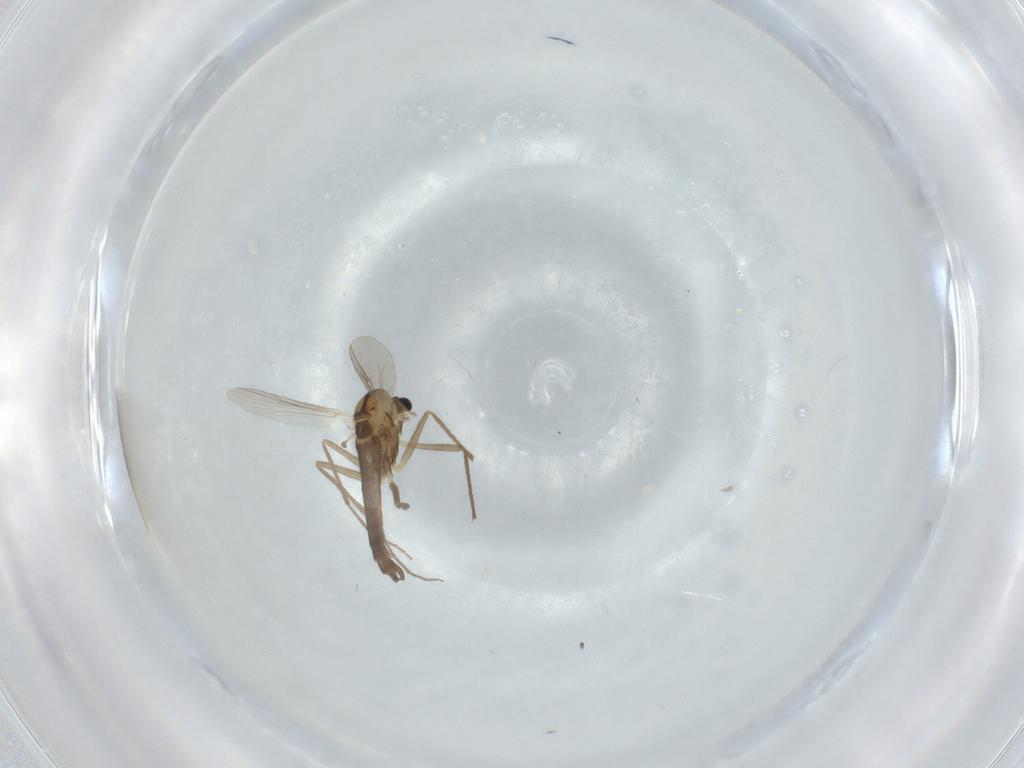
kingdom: Animalia
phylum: Arthropoda
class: Insecta
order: Diptera
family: Chironomidae
